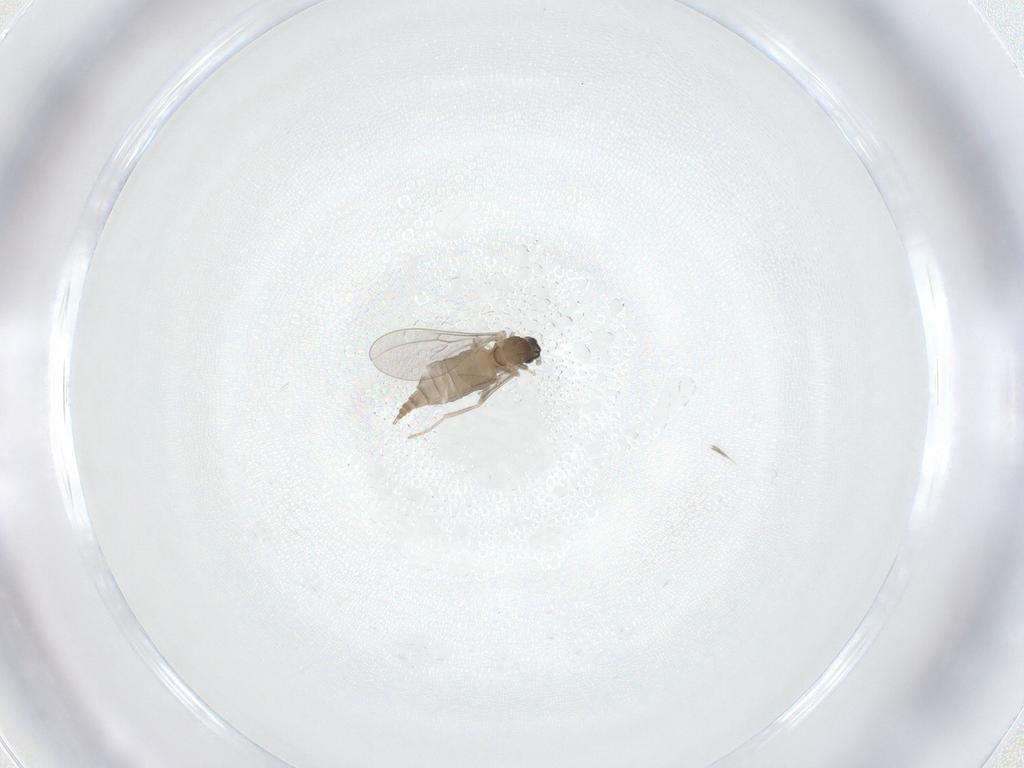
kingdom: Animalia
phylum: Arthropoda
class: Insecta
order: Diptera
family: Cecidomyiidae
